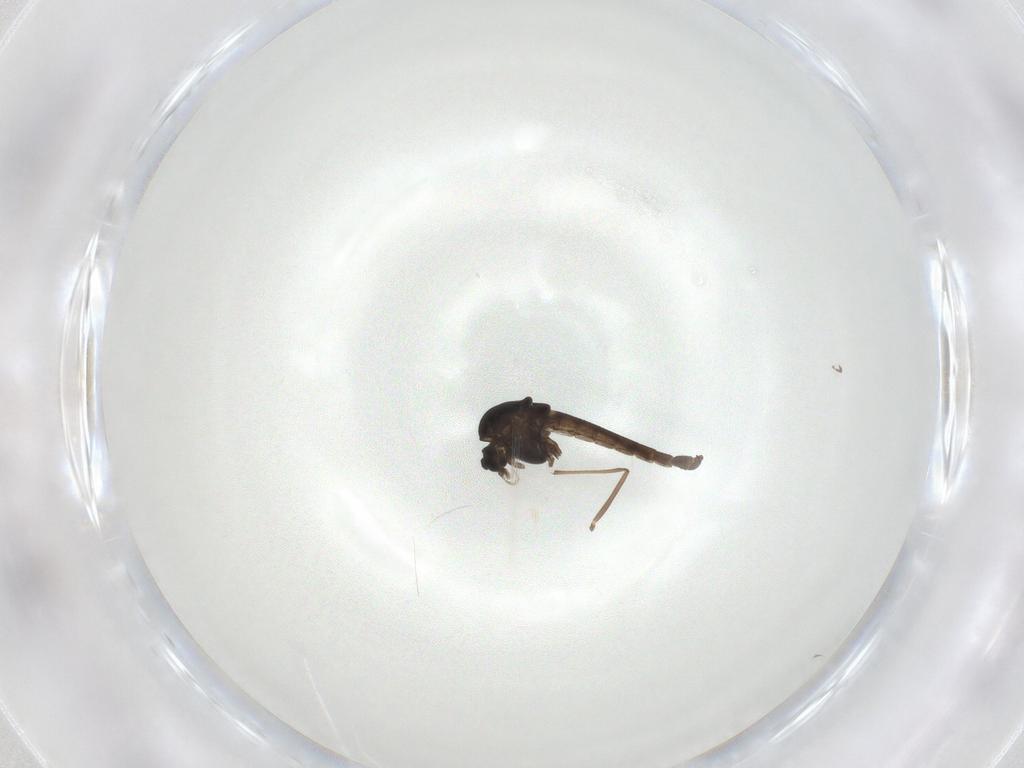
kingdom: Animalia
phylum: Arthropoda
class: Insecta
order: Diptera
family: Chironomidae
